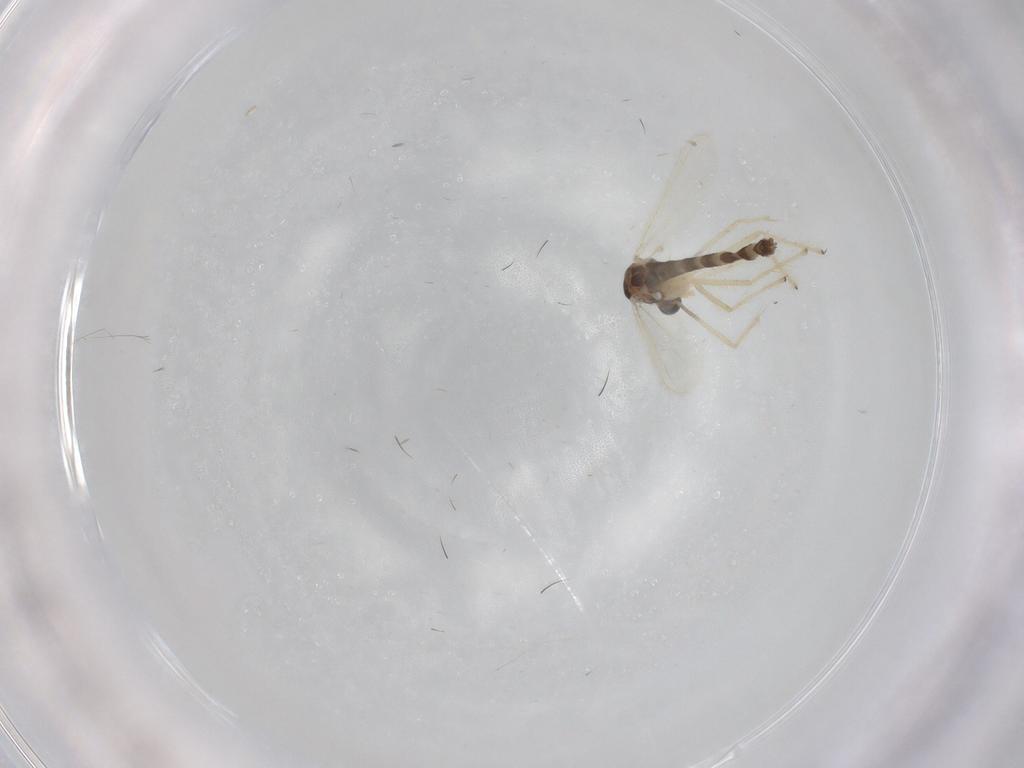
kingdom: Animalia
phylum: Arthropoda
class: Insecta
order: Diptera
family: Chironomidae
